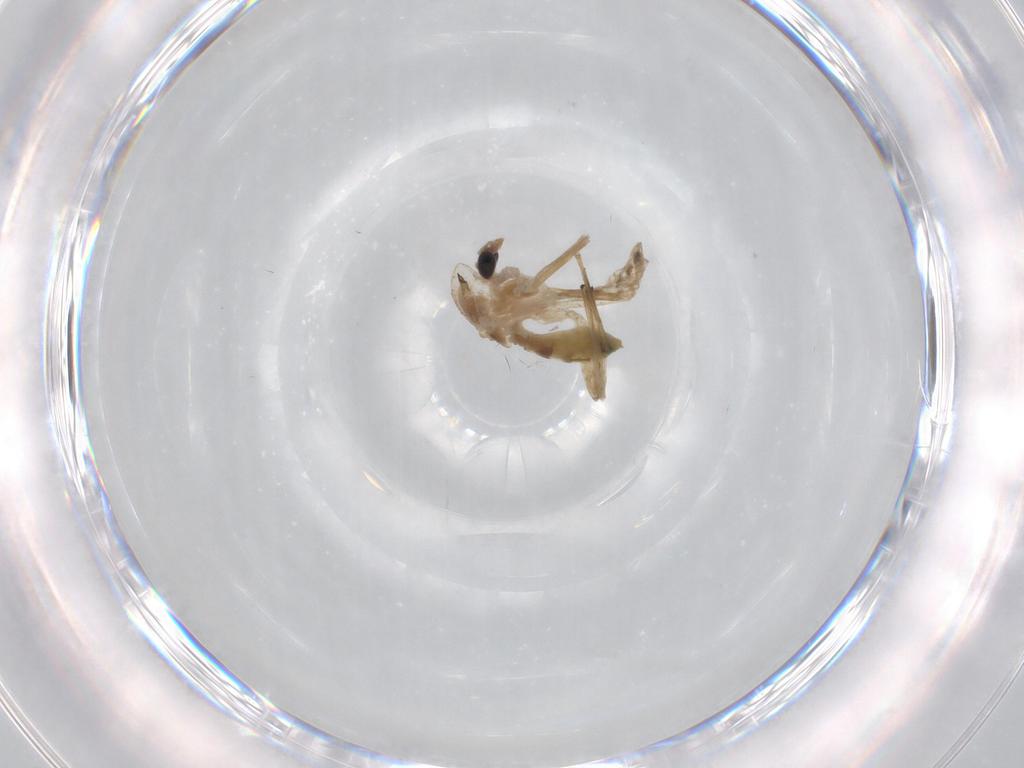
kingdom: Animalia
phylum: Arthropoda
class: Insecta
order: Diptera
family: Chironomidae
